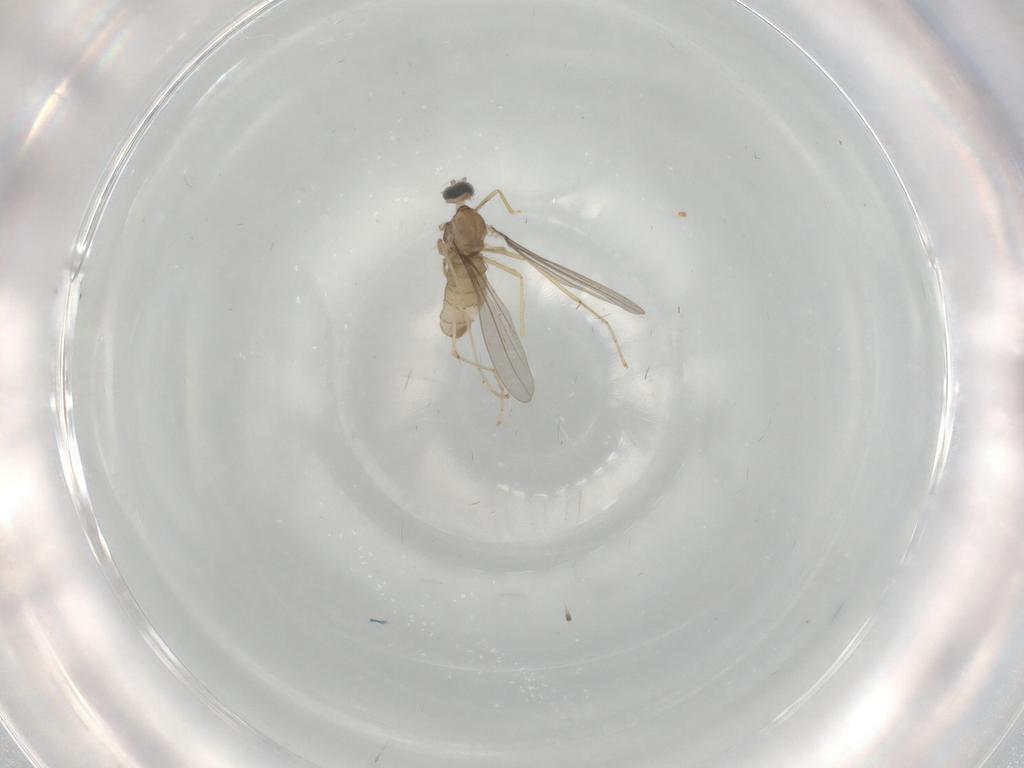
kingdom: Animalia
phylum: Arthropoda
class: Insecta
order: Diptera
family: Cecidomyiidae
